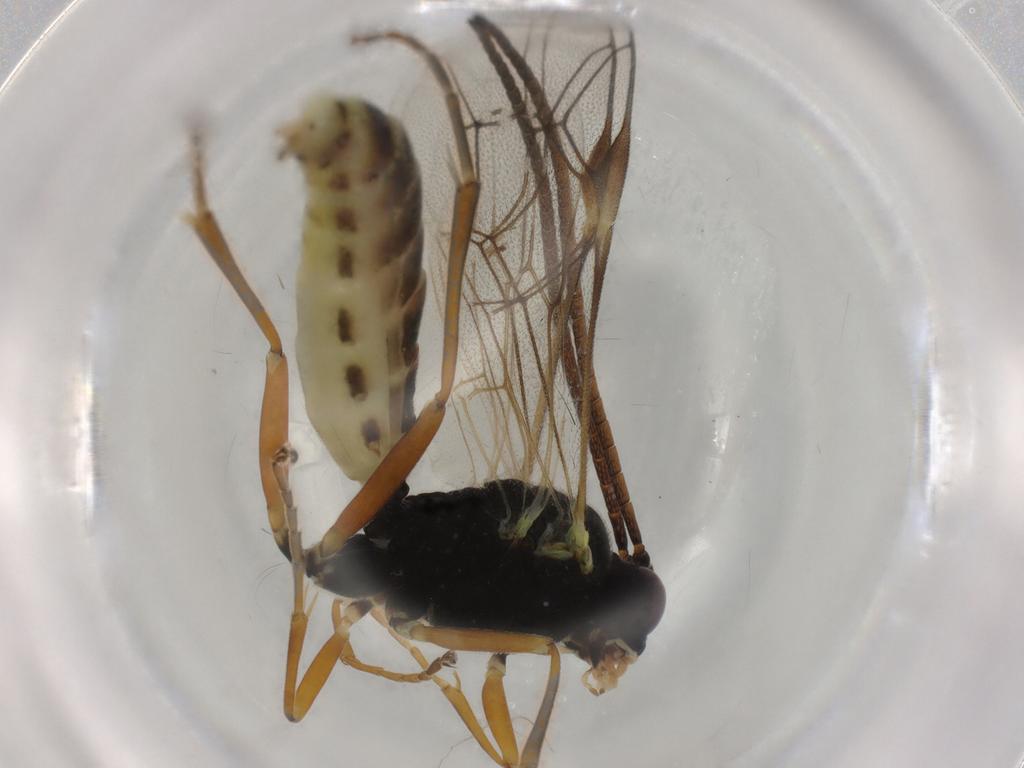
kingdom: Animalia
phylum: Arthropoda
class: Insecta
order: Hymenoptera
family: Ichneumonidae
